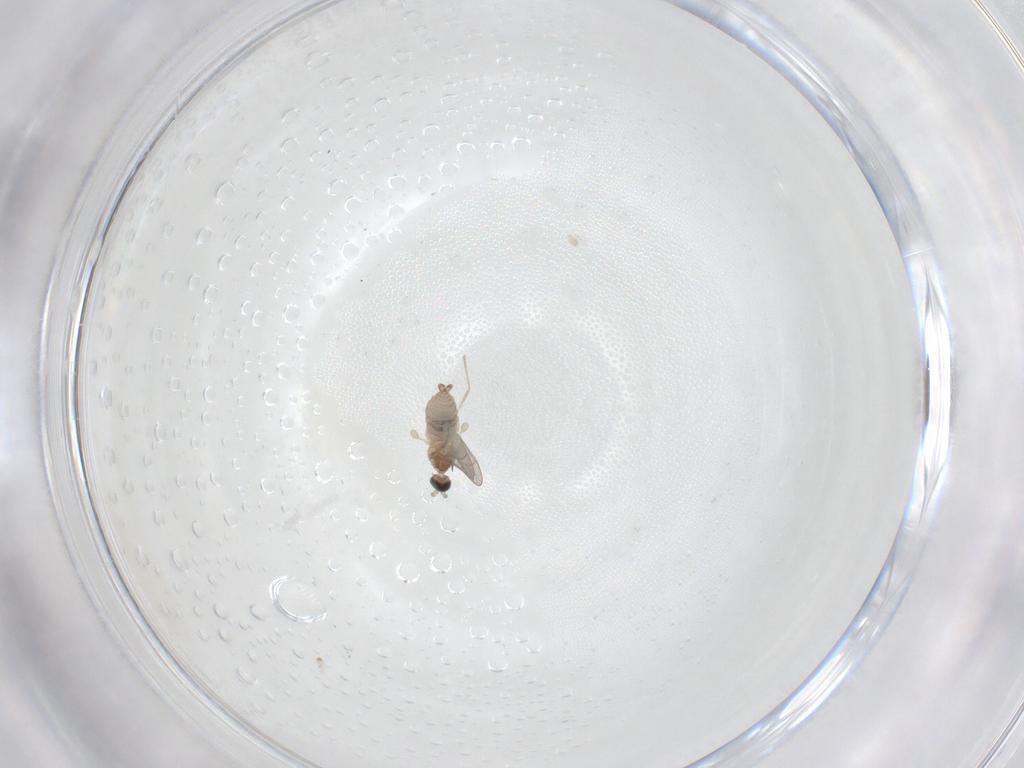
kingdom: Animalia
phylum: Arthropoda
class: Insecta
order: Diptera
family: Cecidomyiidae
